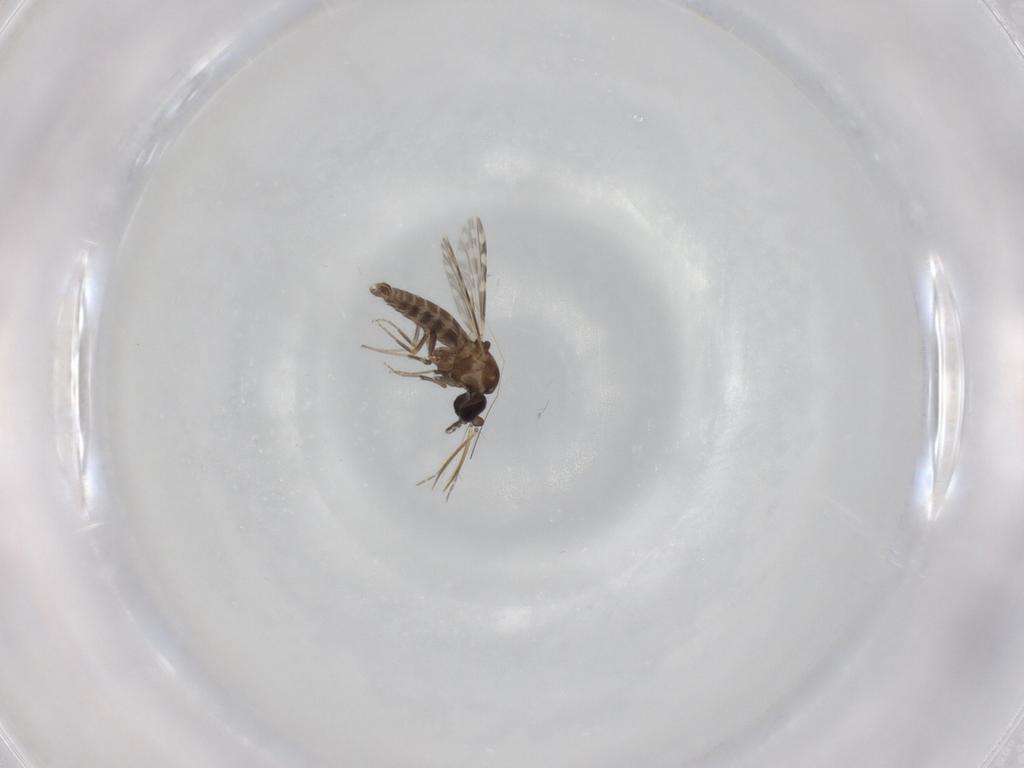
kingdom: Animalia
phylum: Arthropoda
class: Insecta
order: Diptera
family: Ceratopogonidae
